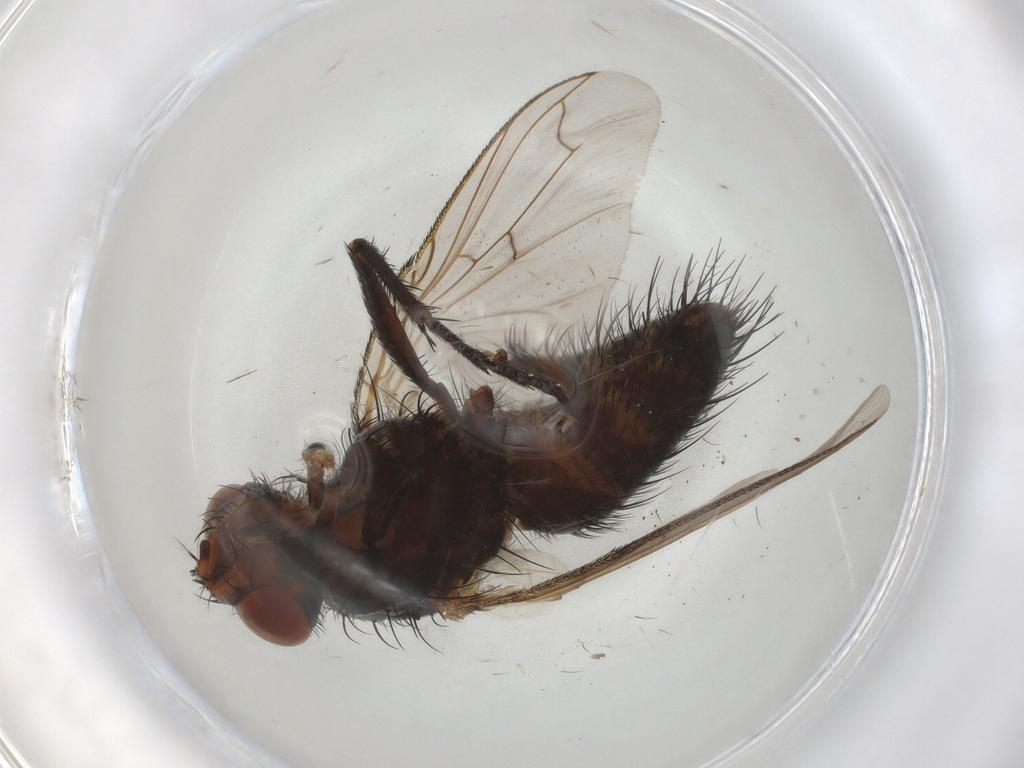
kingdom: Animalia
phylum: Arthropoda
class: Insecta
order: Diptera
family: Tachinidae
